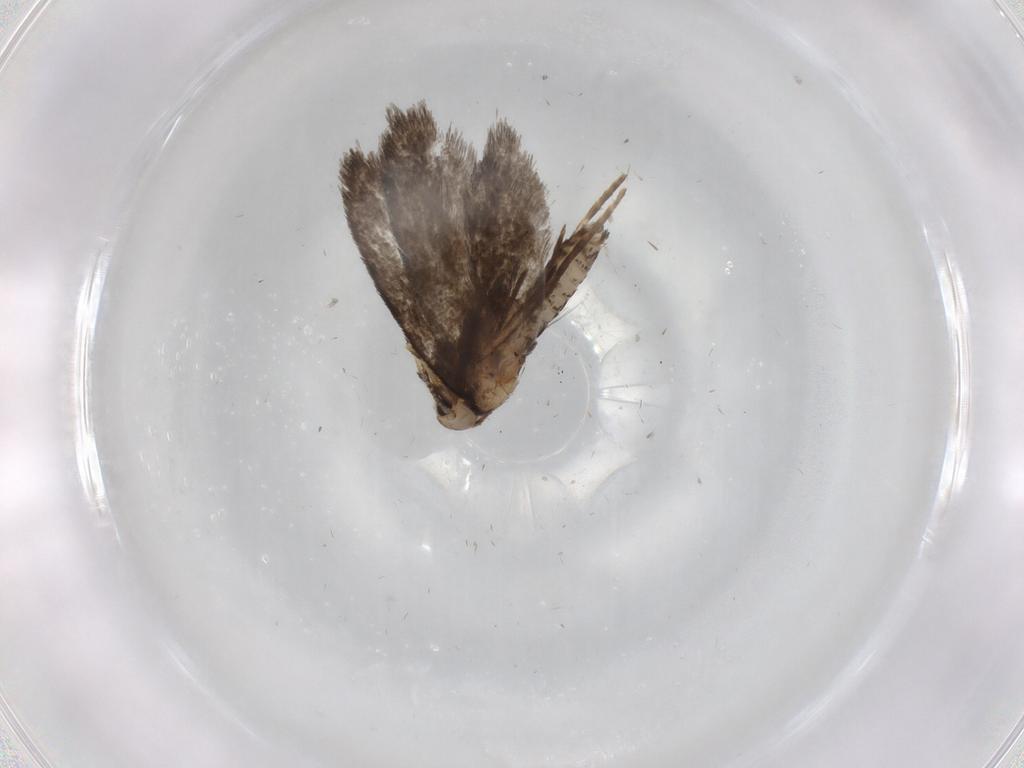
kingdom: Animalia
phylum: Arthropoda
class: Insecta
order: Lepidoptera
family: Psychidae
